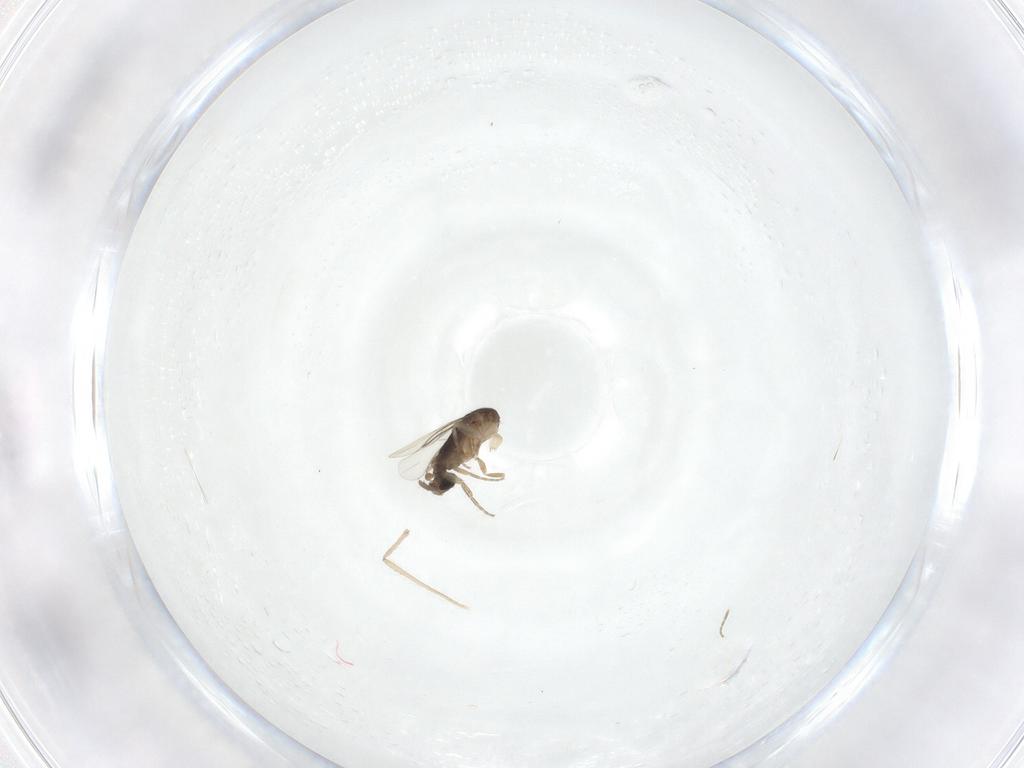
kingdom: Animalia
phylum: Arthropoda
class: Insecta
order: Diptera
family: Phoridae
